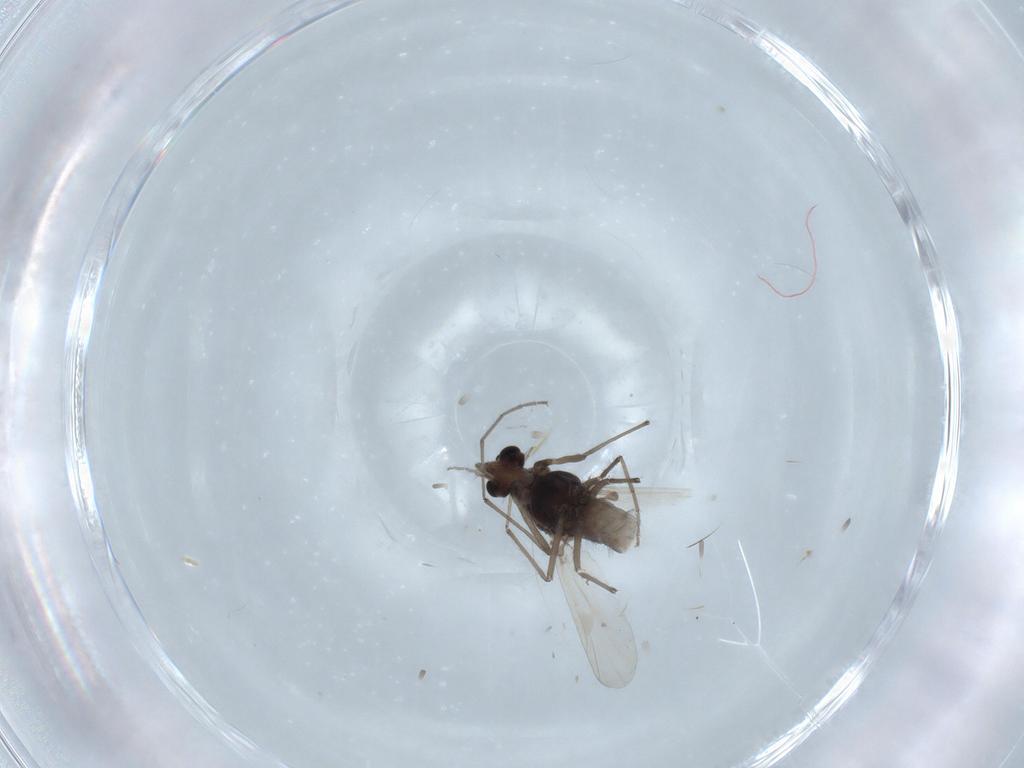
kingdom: Animalia
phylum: Arthropoda
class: Insecta
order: Diptera
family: Chironomidae
